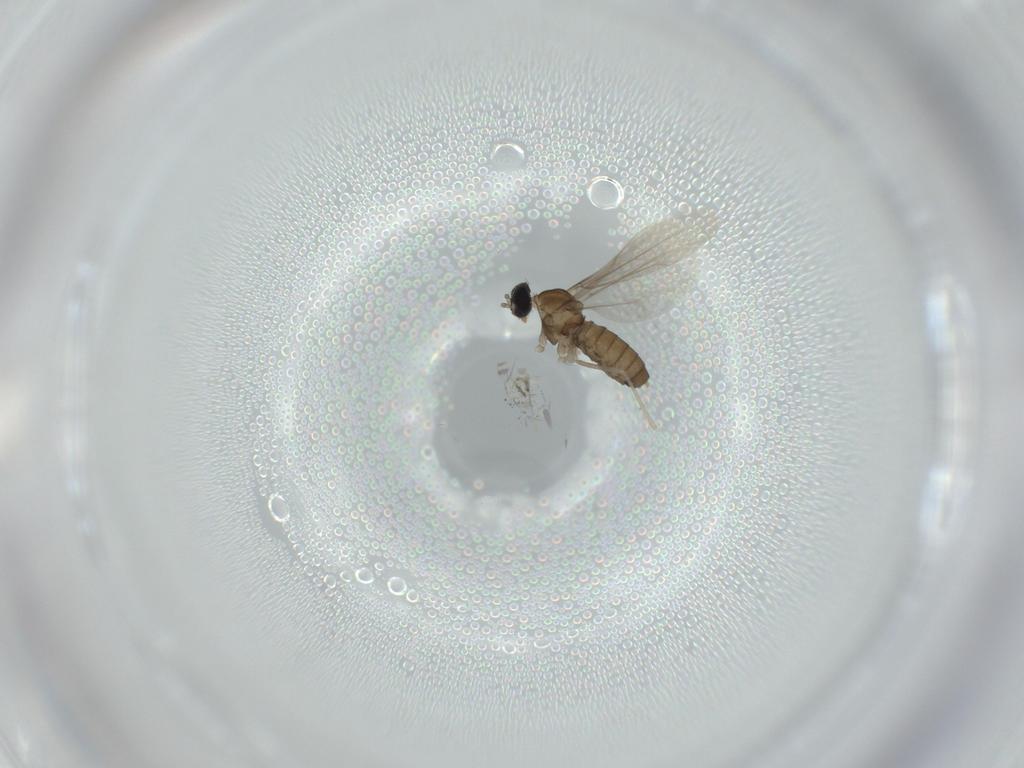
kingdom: Animalia
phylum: Arthropoda
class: Insecta
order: Diptera
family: Cecidomyiidae
